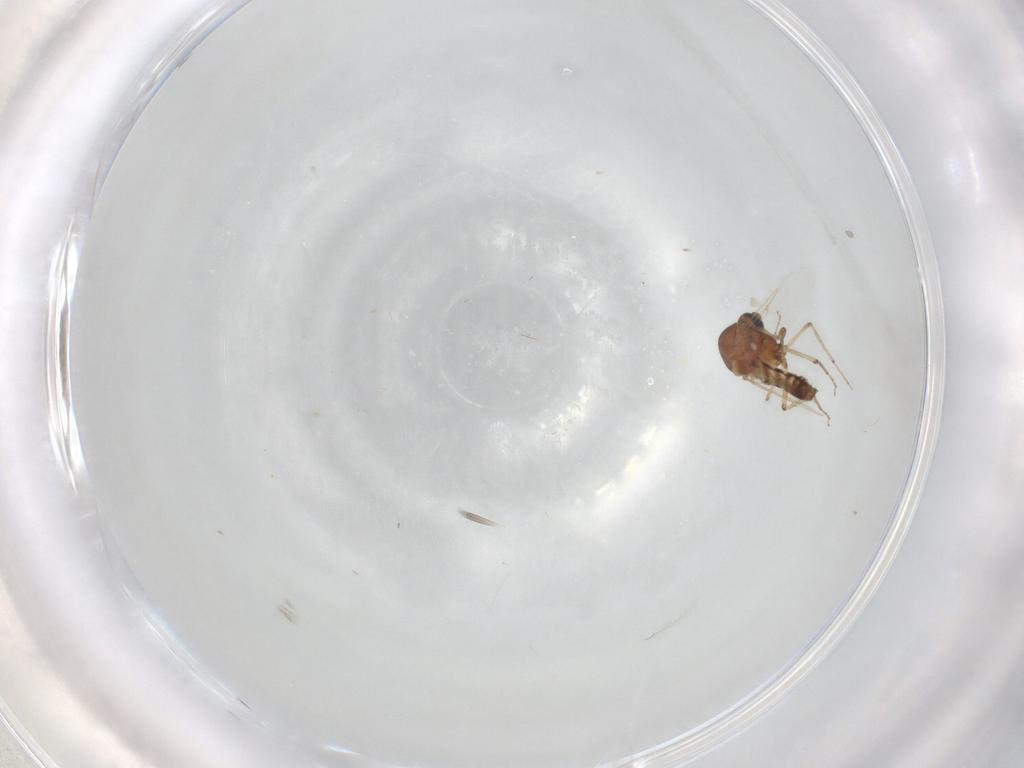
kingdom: Animalia
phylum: Arthropoda
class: Insecta
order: Diptera
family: Ceratopogonidae
